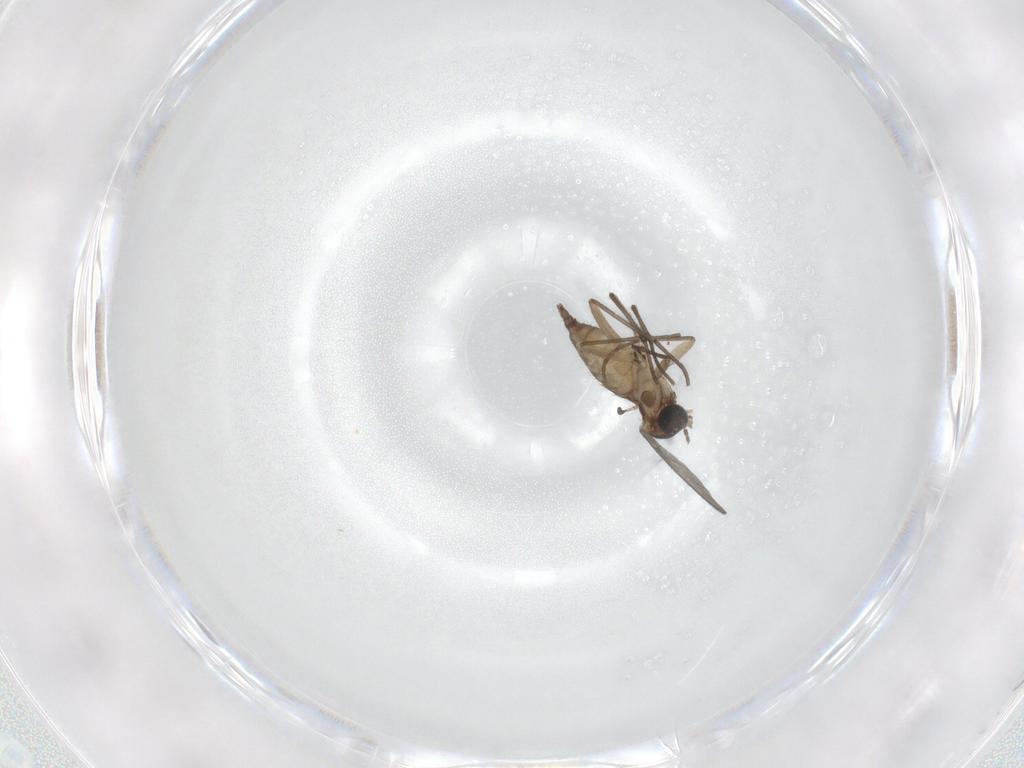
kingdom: Animalia
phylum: Arthropoda
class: Insecta
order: Diptera
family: Sciaridae
